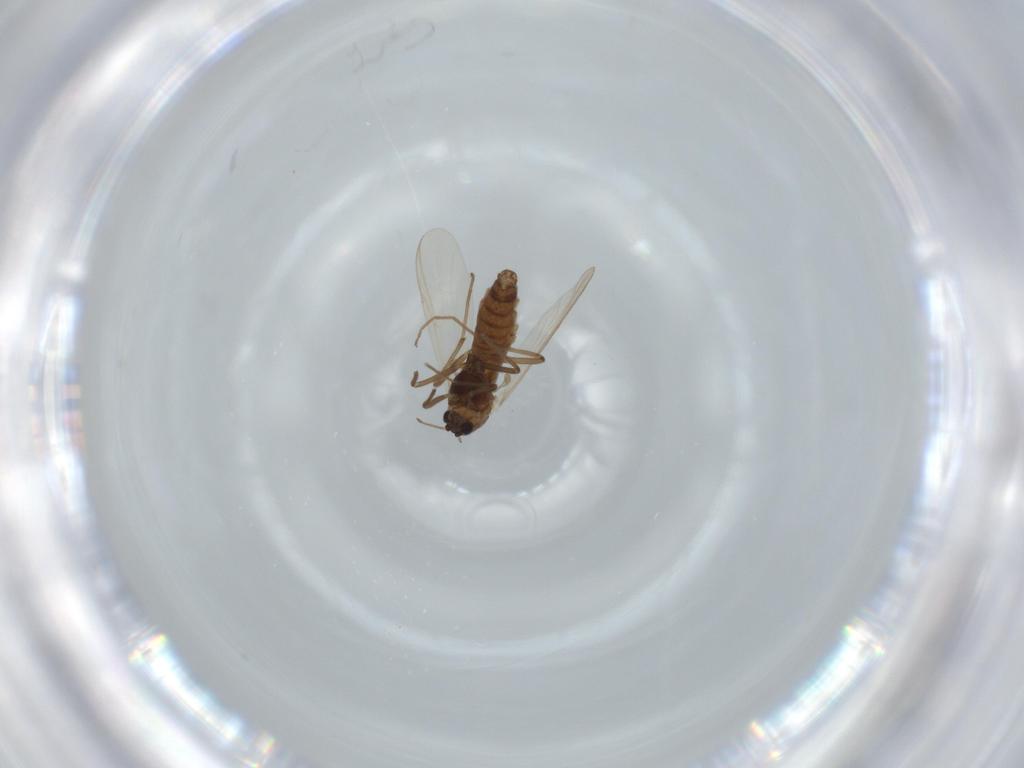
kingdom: Animalia
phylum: Arthropoda
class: Insecta
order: Diptera
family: Chironomidae
